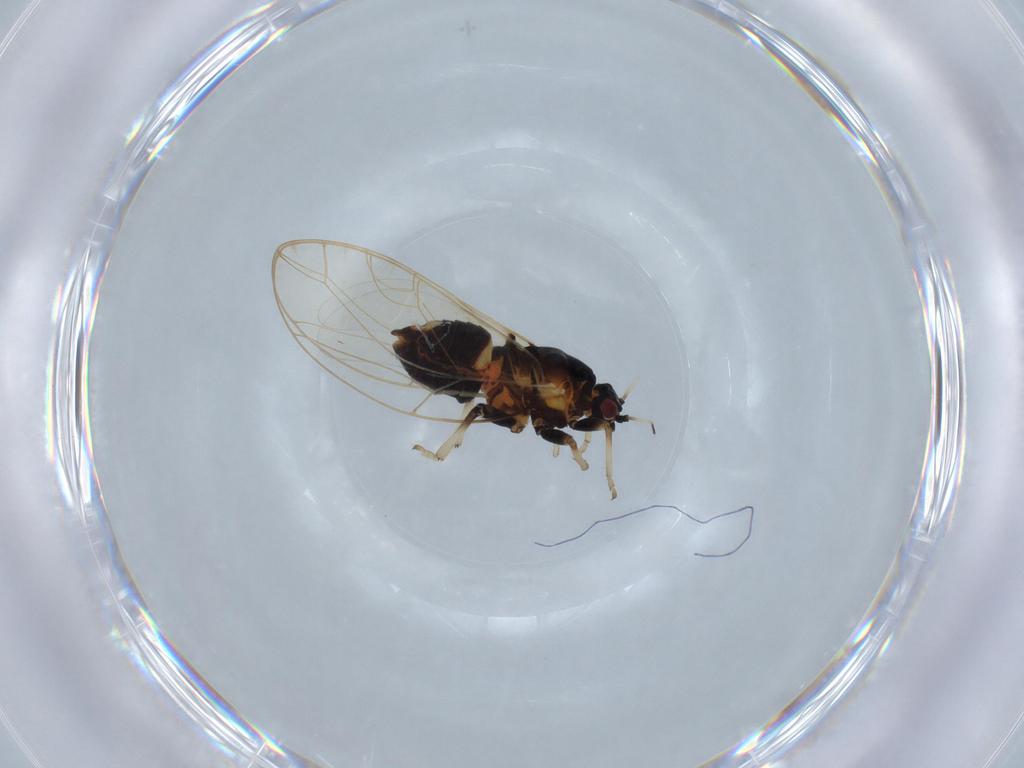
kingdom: Animalia
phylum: Arthropoda
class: Insecta
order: Hemiptera
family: Triozidae
